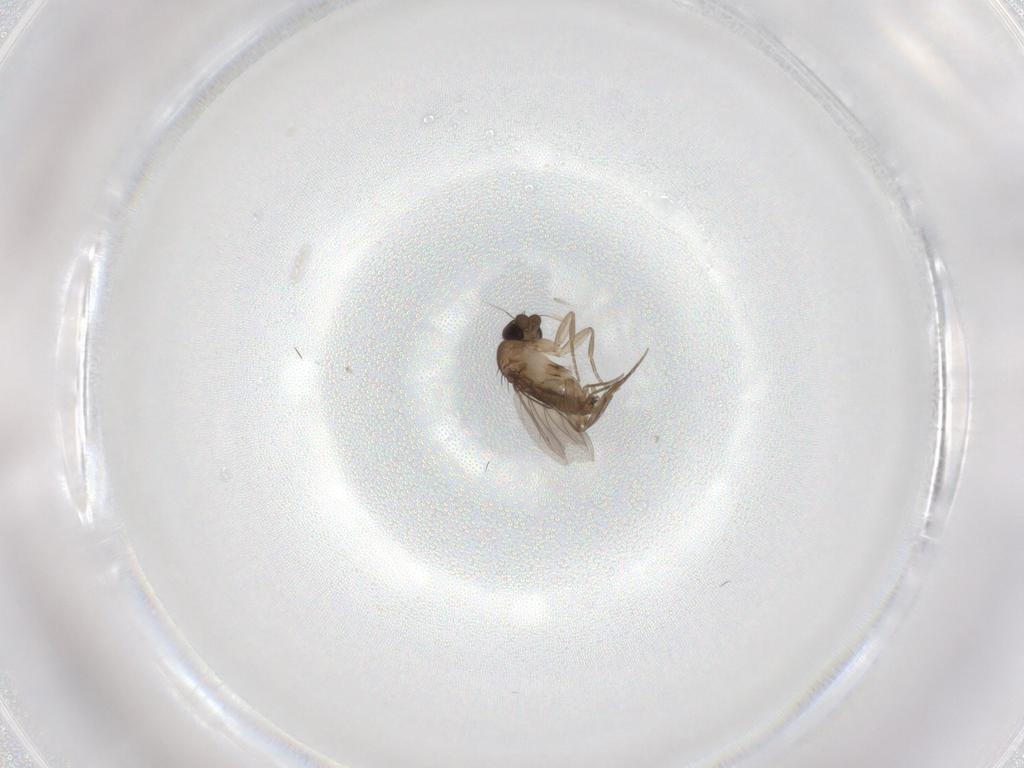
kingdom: Animalia
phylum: Arthropoda
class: Insecta
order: Diptera
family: Phoridae
